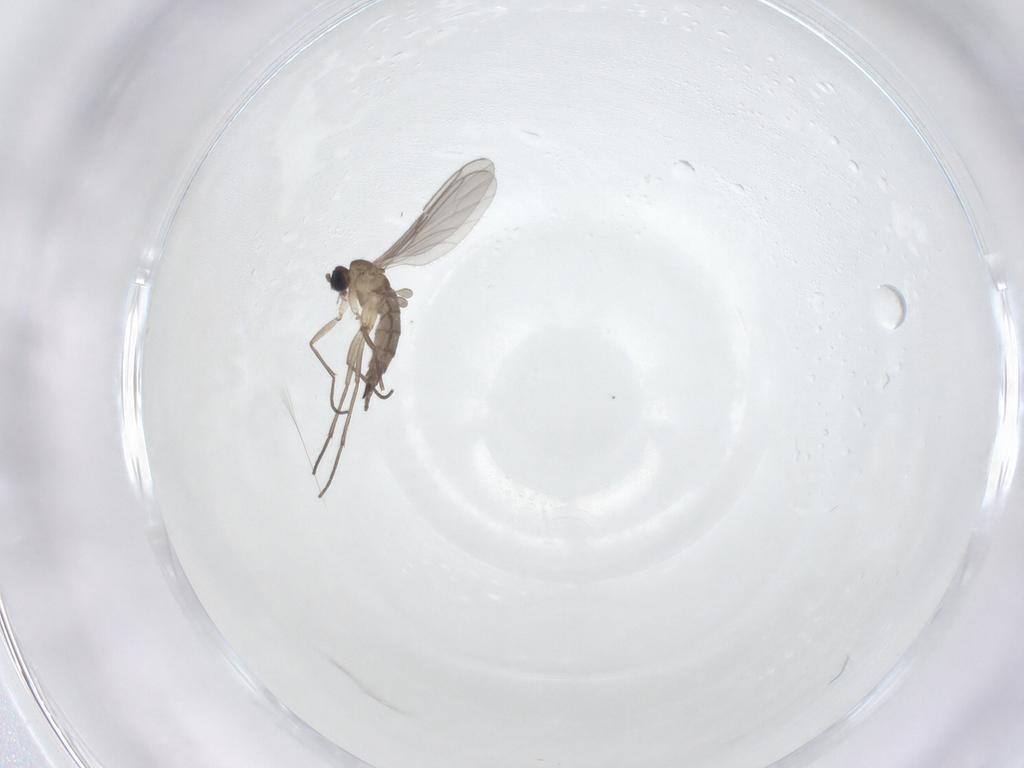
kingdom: Animalia
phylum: Arthropoda
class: Insecta
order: Diptera
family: Sciaridae
